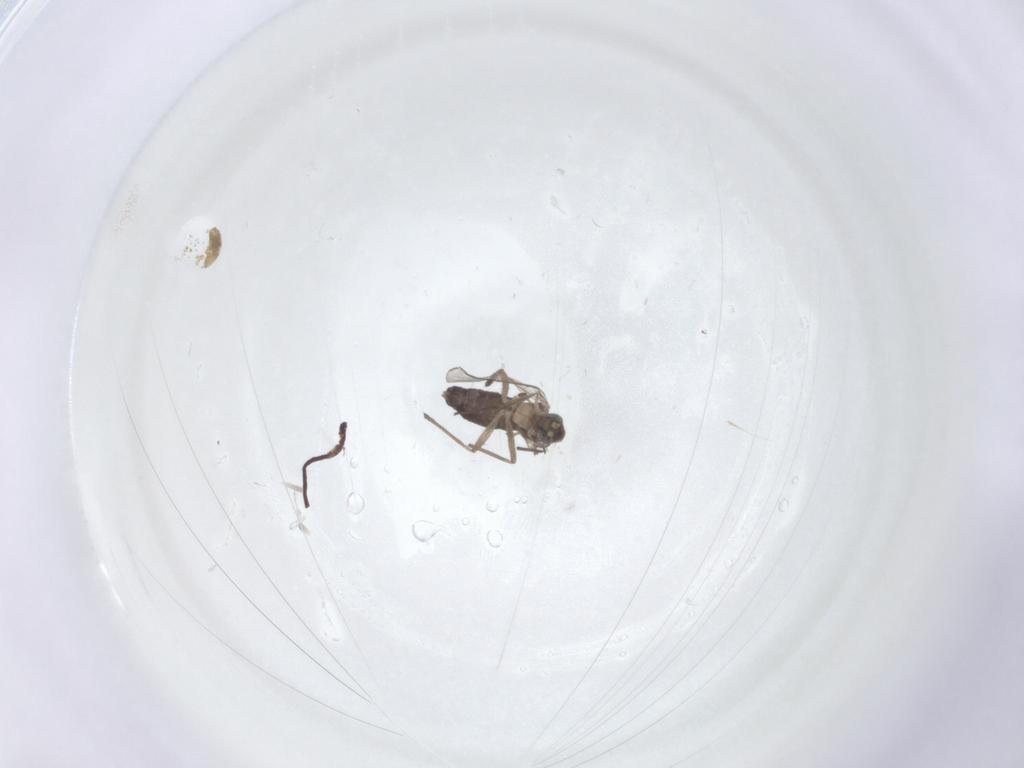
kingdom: Animalia
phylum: Arthropoda
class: Insecta
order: Diptera
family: Chironomidae
